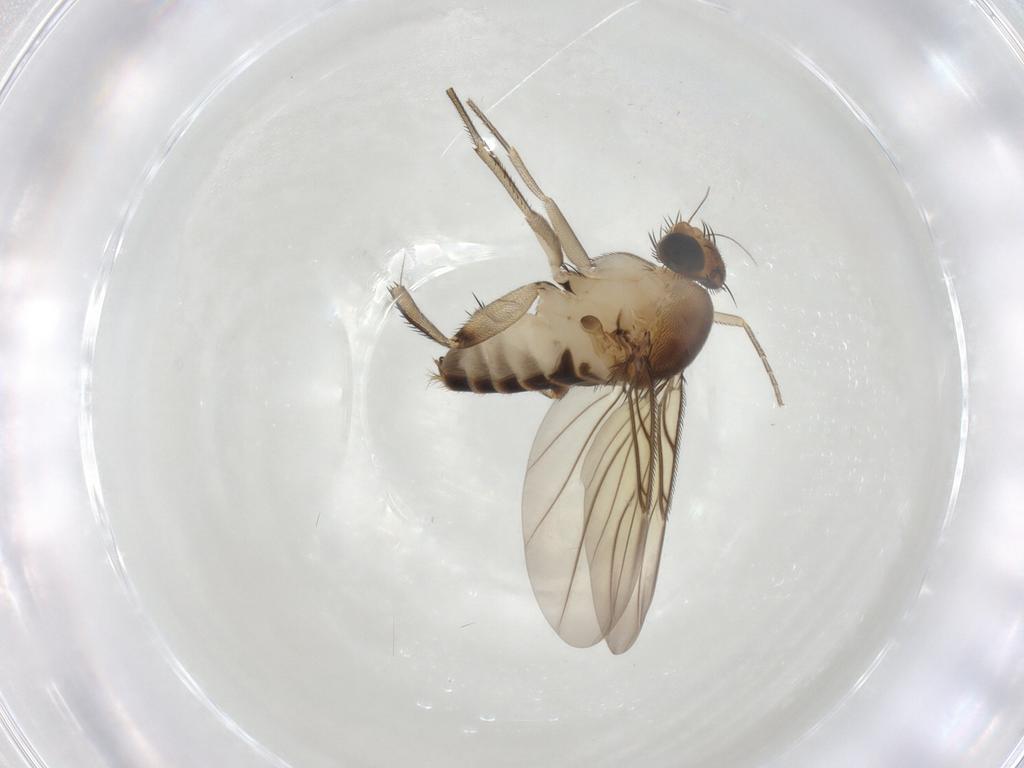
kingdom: Animalia
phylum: Arthropoda
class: Insecta
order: Diptera
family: Phoridae
